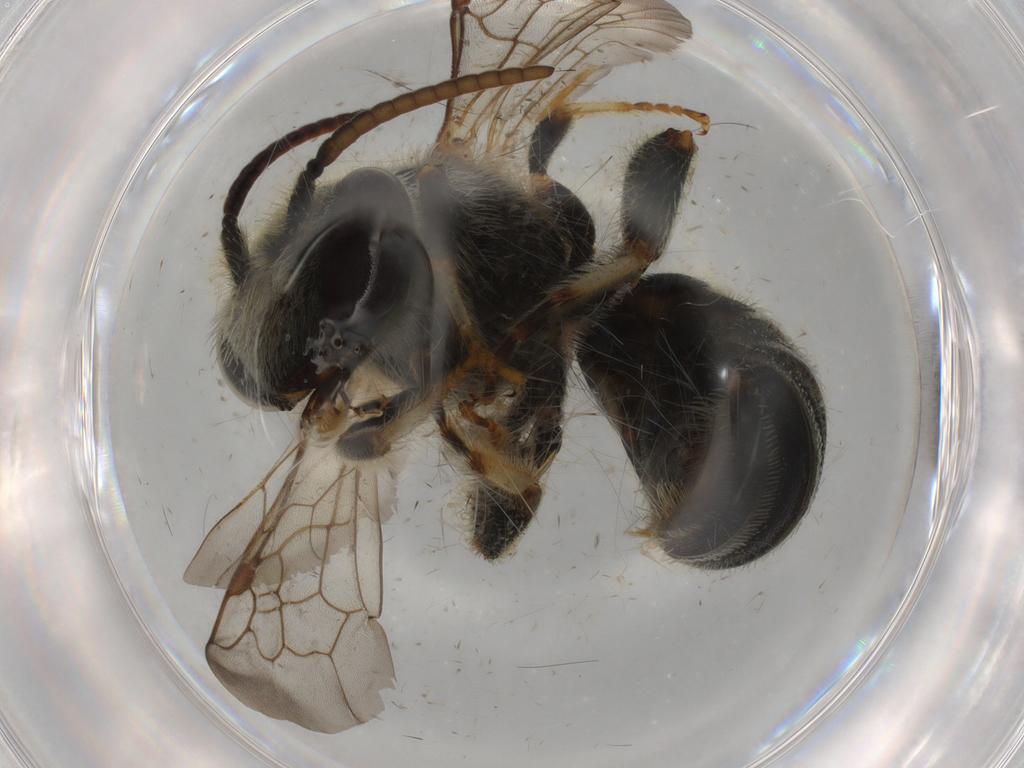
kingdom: Animalia
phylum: Arthropoda
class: Insecta
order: Hymenoptera
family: Halictidae
